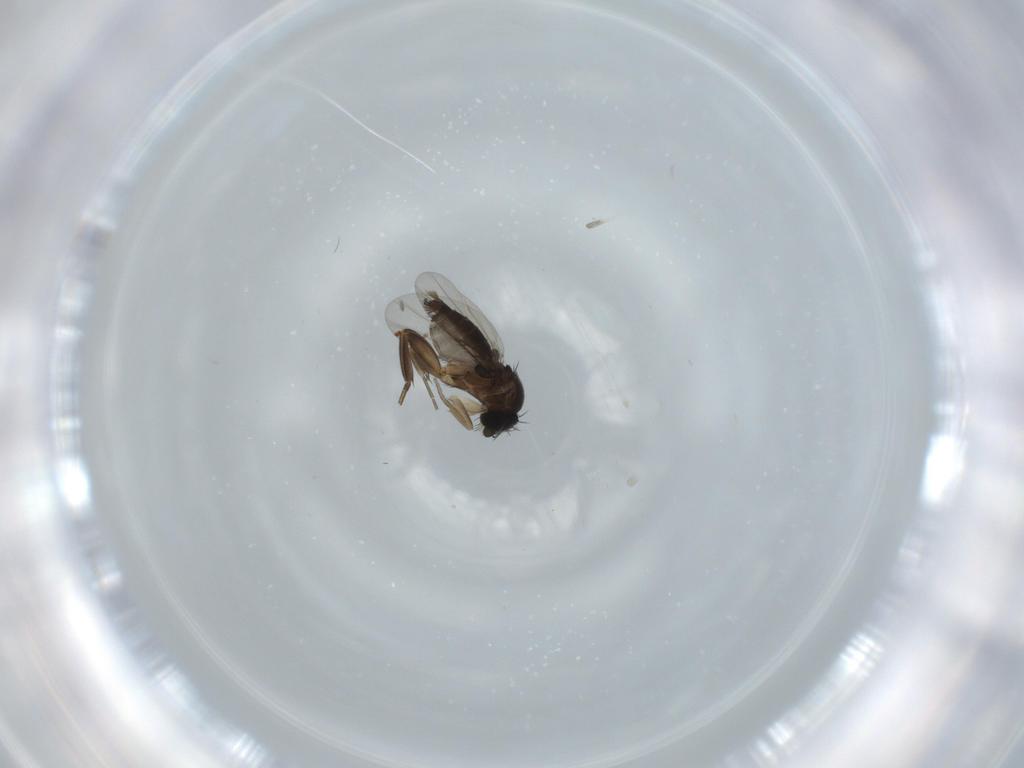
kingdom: Animalia
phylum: Arthropoda
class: Insecta
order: Diptera
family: Phoridae
